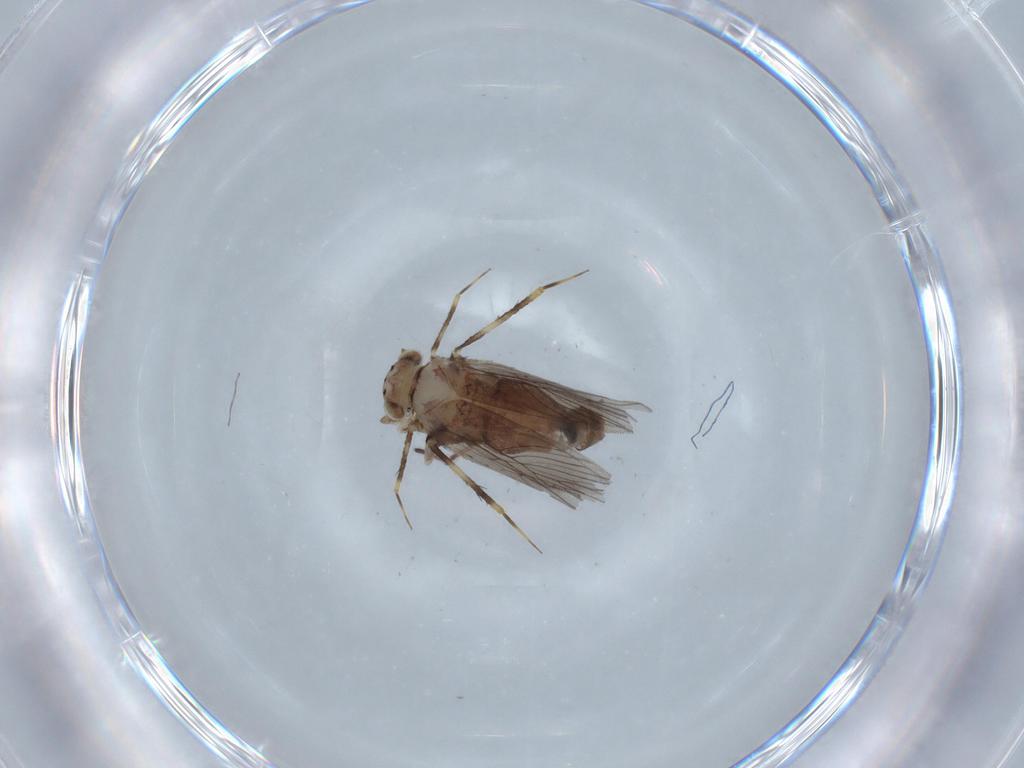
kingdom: Animalia
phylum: Arthropoda
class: Insecta
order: Psocodea
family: Lepidopsocidae
